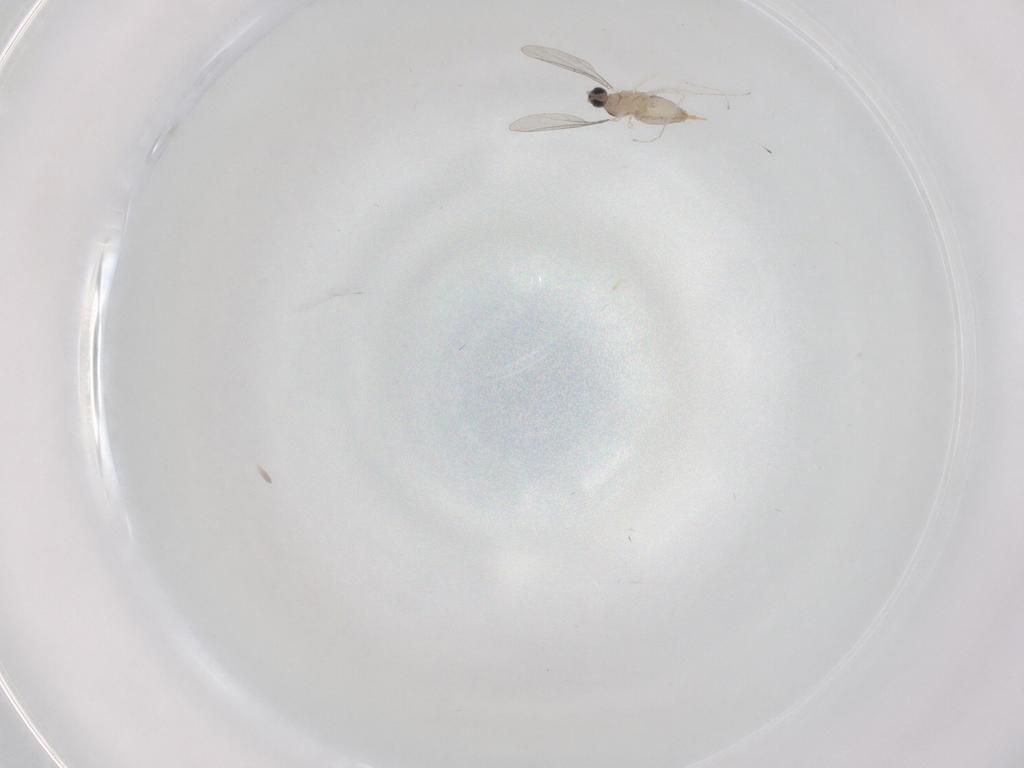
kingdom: Animalia
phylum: Arthropoda
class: Insecta
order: Diptera
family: Cecidomyiidae
